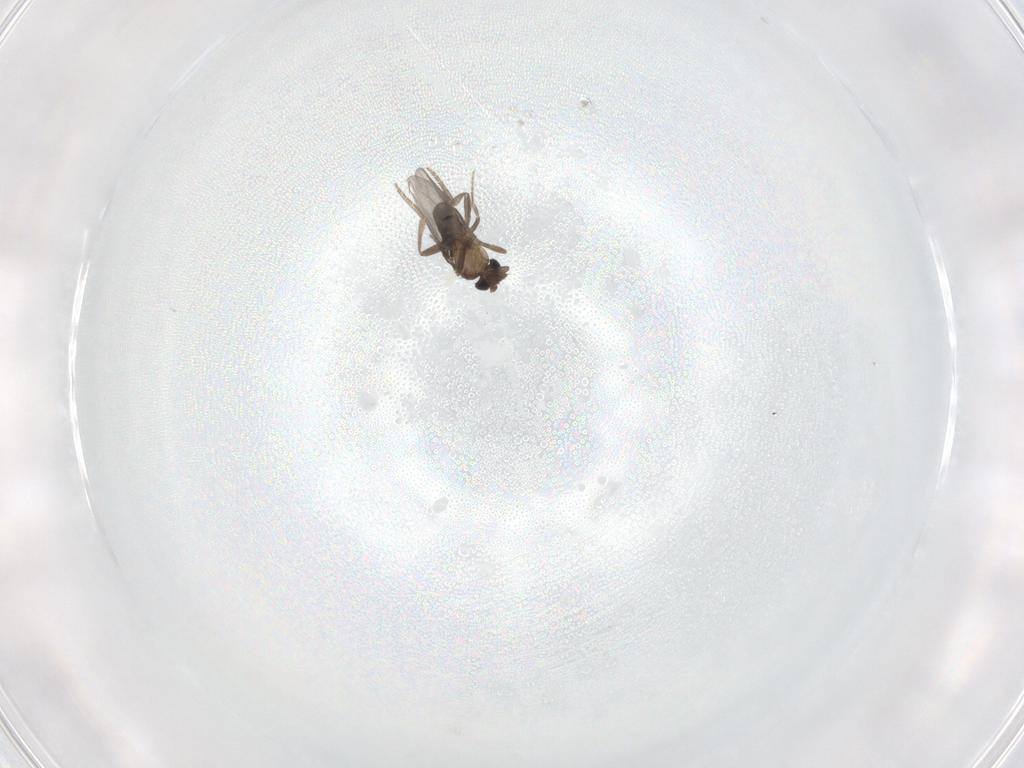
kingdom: Animalia
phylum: Arthropoda
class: Insecta
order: Diptera
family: Chironomidae
